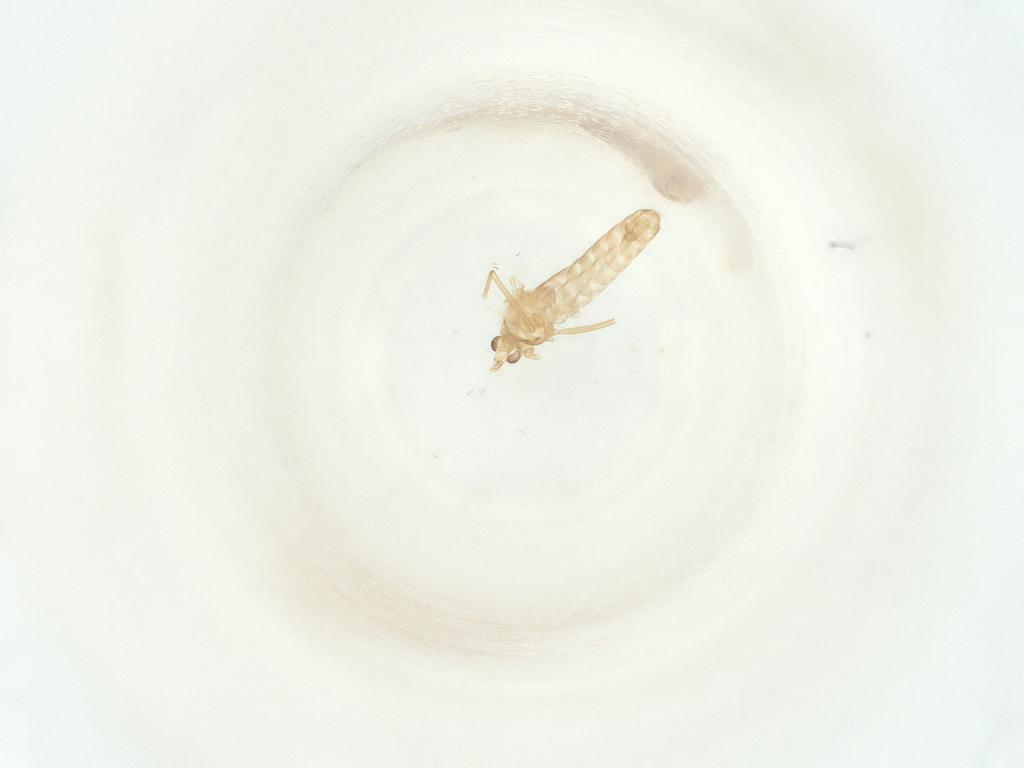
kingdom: Animalia
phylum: Arthropoda
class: Insecta
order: Diptera
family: Chironomidae
